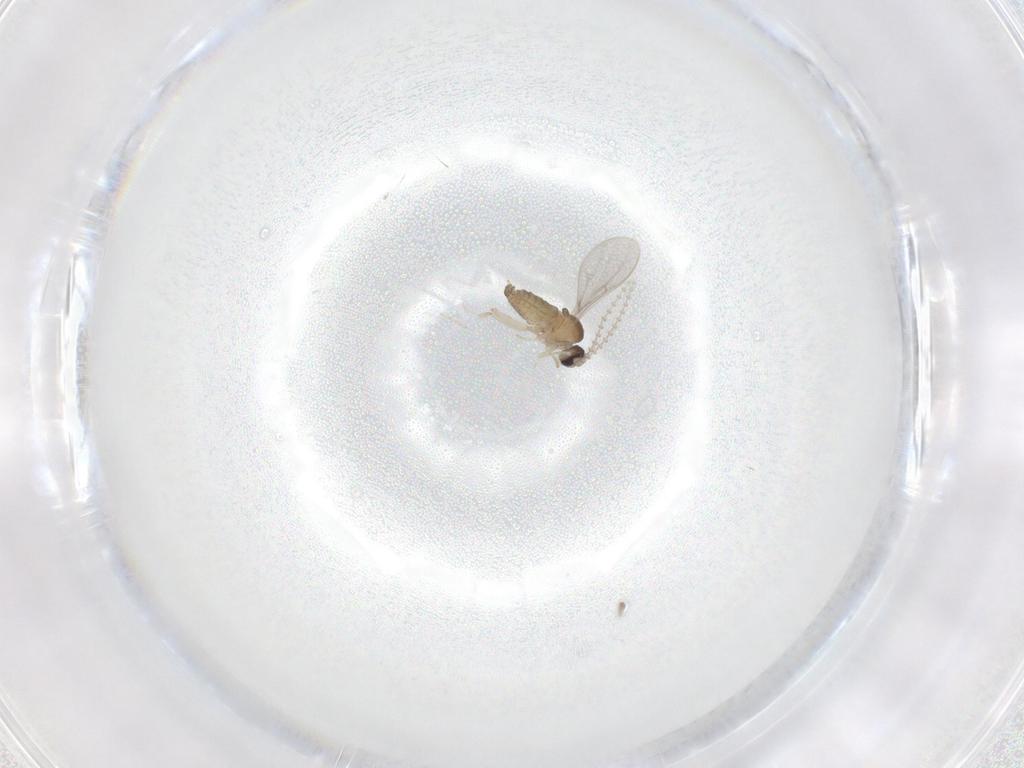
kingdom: Animalia
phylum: Arthropoda
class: Insecta
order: Diptera
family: Cecidomyiidae
